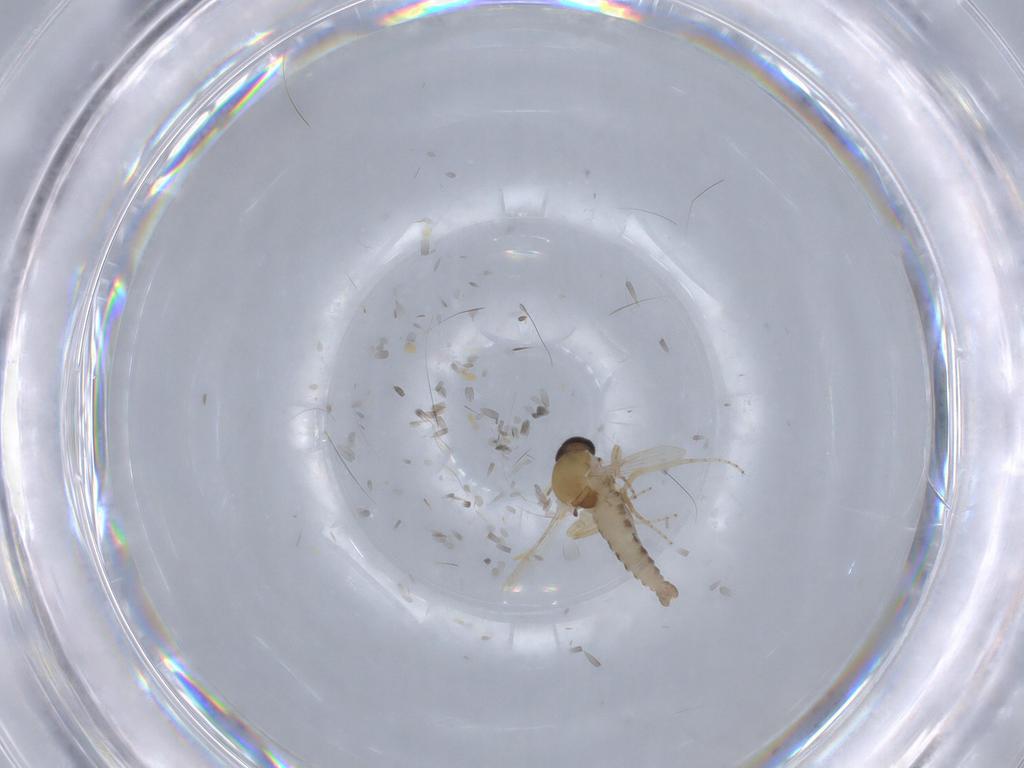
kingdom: Animalia
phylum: Arthropoda
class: Insecta
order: Diptera
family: Ceratopogonidae
